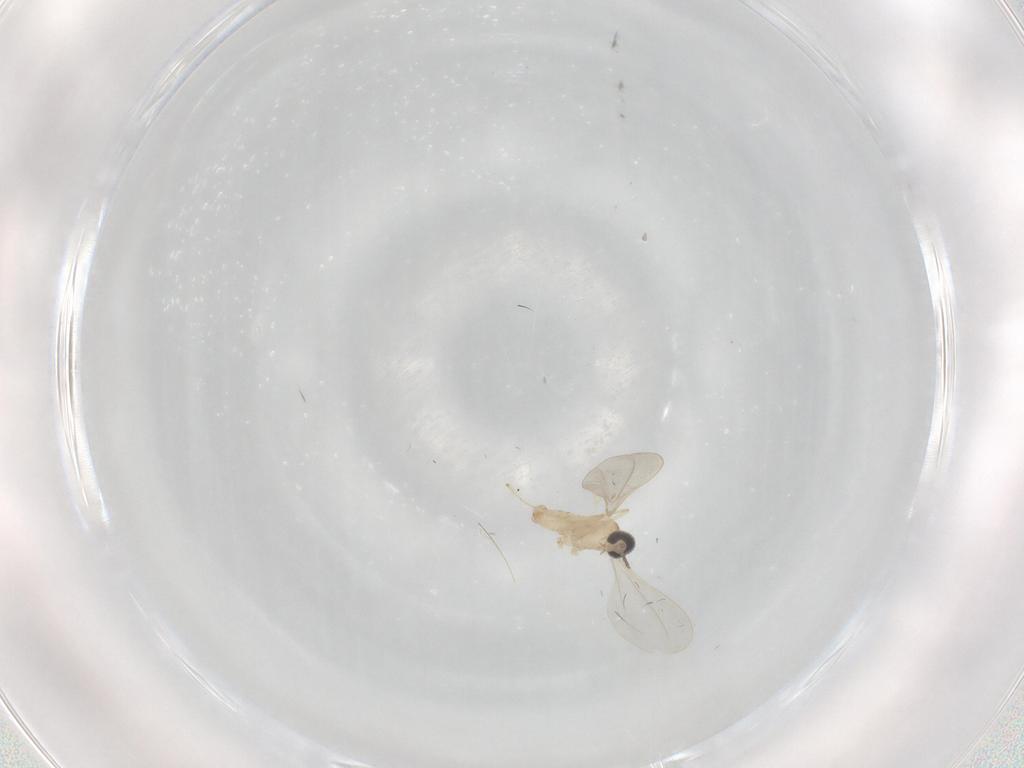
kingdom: Animalia
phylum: Arthropoda
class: Insecta
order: Diptera
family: Cecidomyiidae
